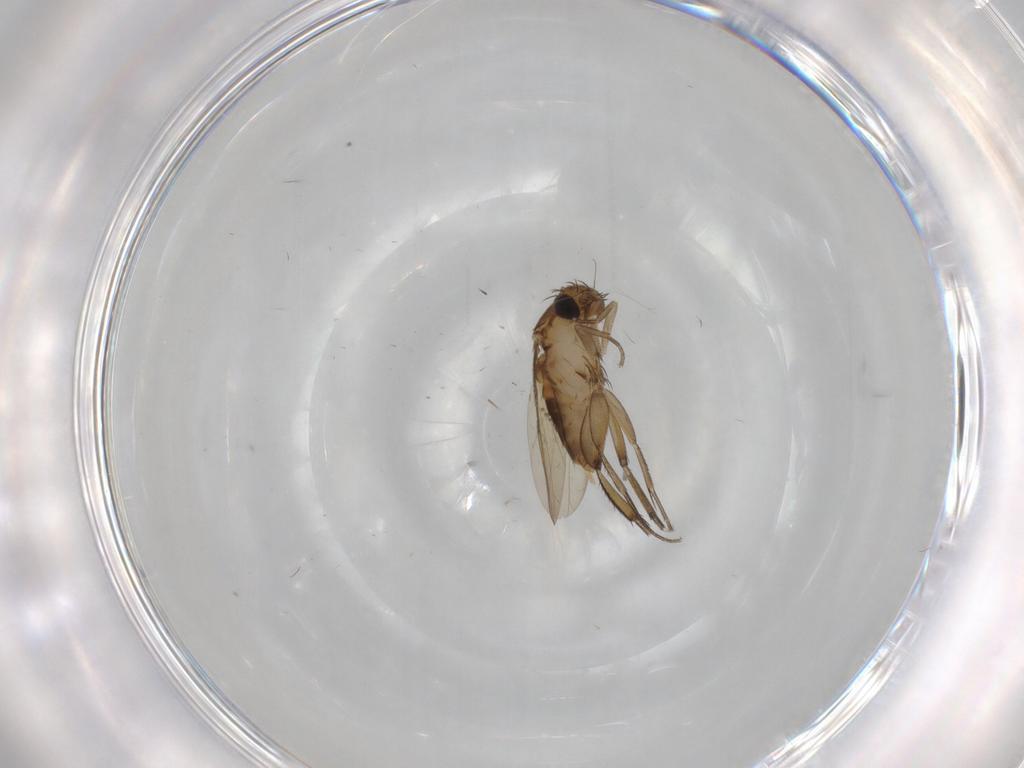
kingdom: Animalia
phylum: Arthropoda
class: Insecta
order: Diptera
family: Phoridae
